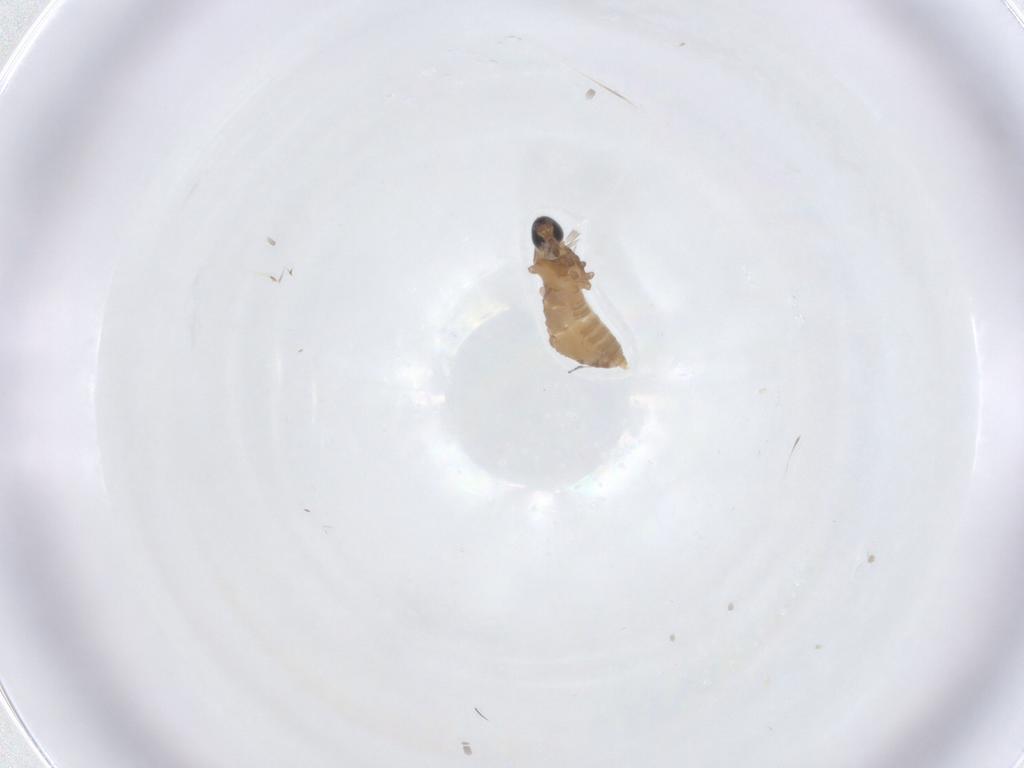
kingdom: Animalia
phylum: Arthropoda
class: Insecta
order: Diptera
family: Cecidomyiidae
